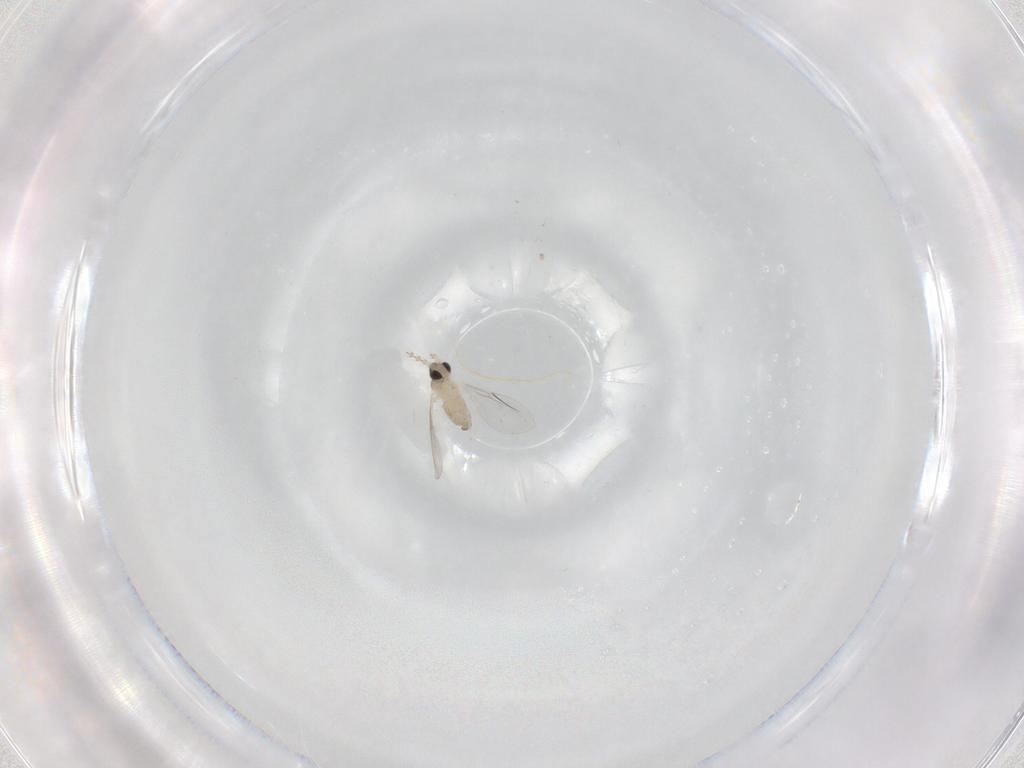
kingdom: Animalia
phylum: Arthropoda
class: Insecta
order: Diptera
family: Cecidomyiidae
